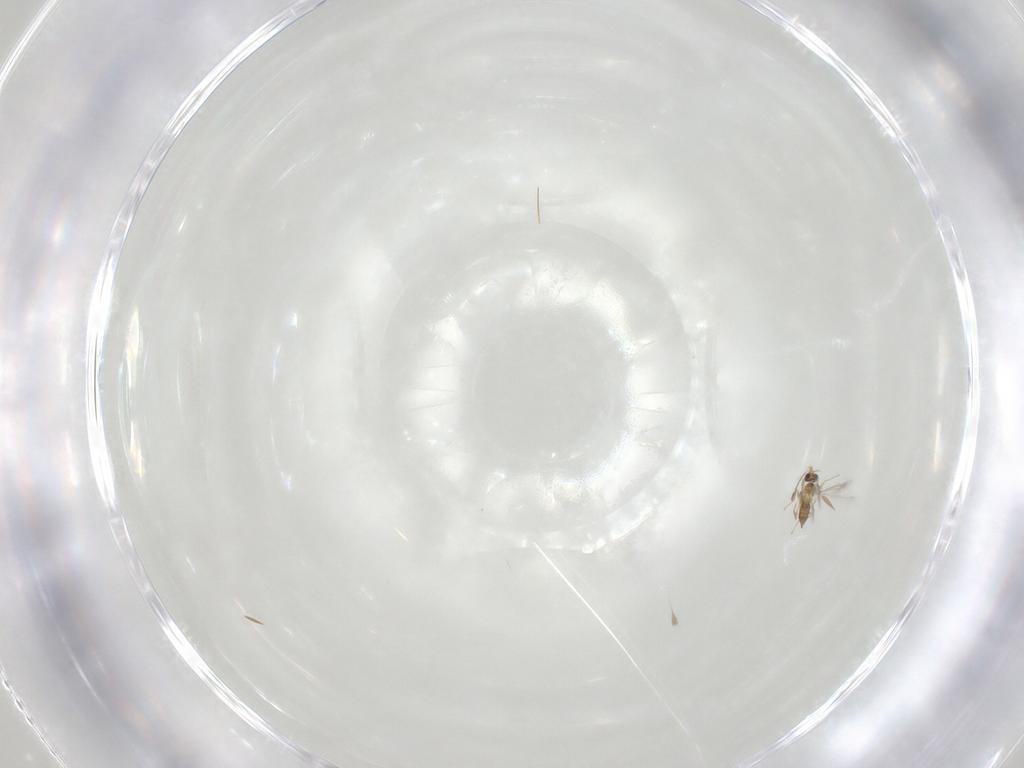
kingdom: Animalia
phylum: Arthropoda
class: Insecta
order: Hymenoptera
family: Mymaridae
